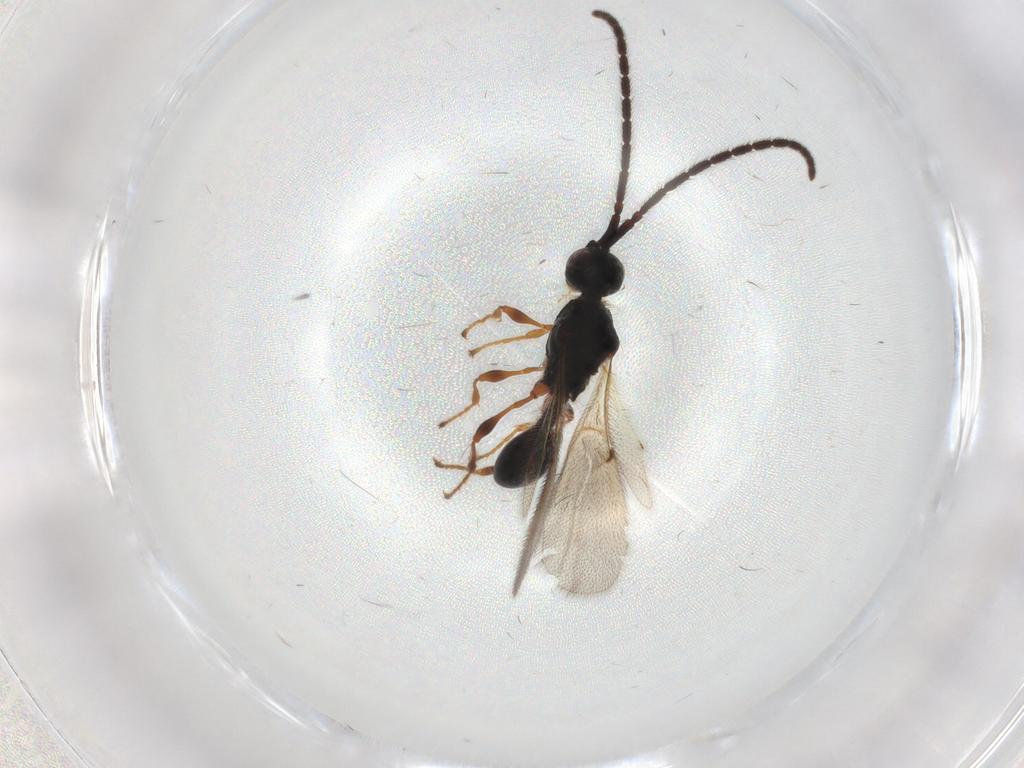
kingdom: Animalia
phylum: Arthropoda
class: Insecta
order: Hymenoptera
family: Diapriidae
